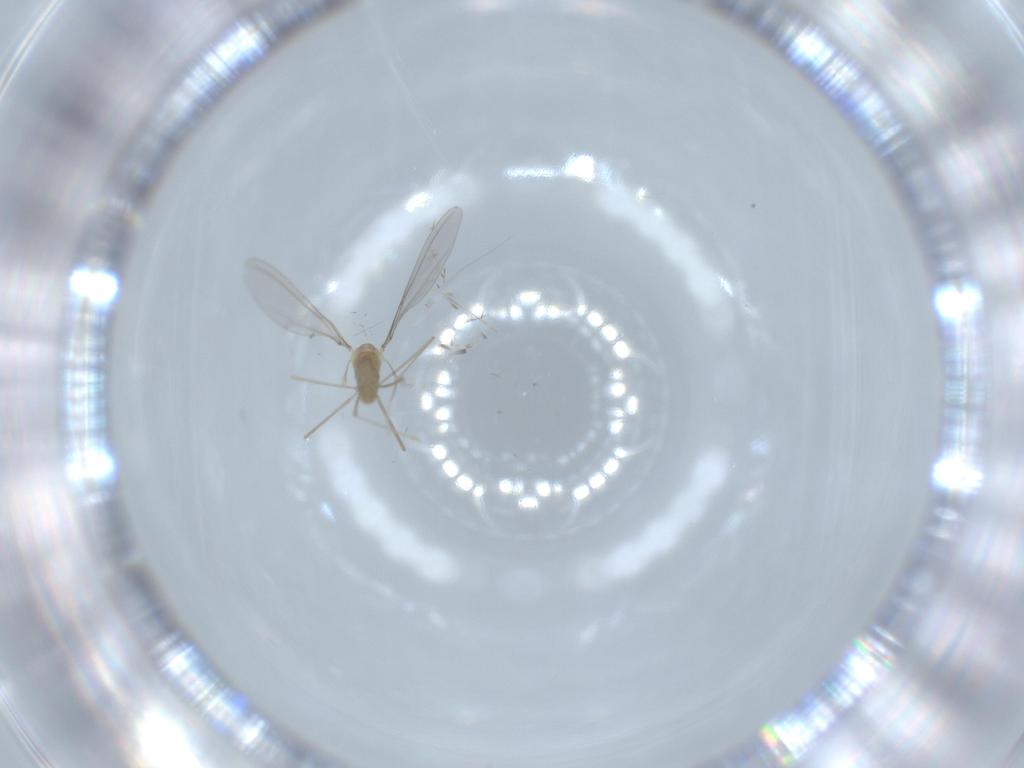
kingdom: Animalia
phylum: Arthropoda
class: Insecta
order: Diptera
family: Cecidomyiidae
